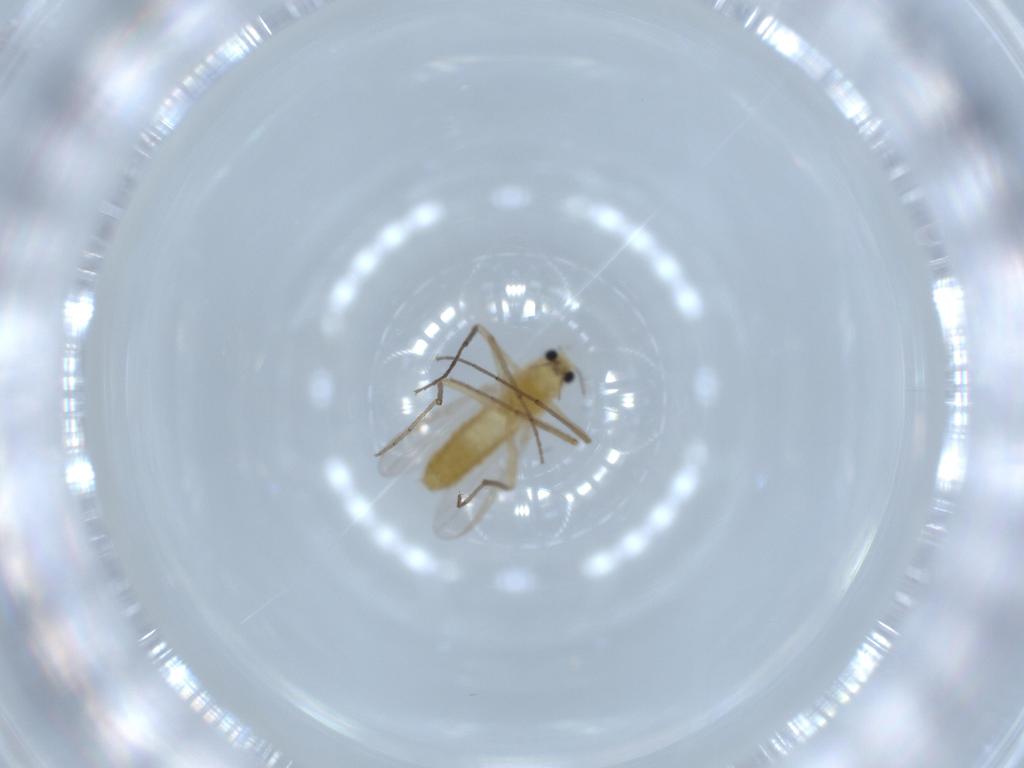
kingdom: Animalia
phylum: Arthropoda
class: Insecta
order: Diptera
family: Chironomidae
